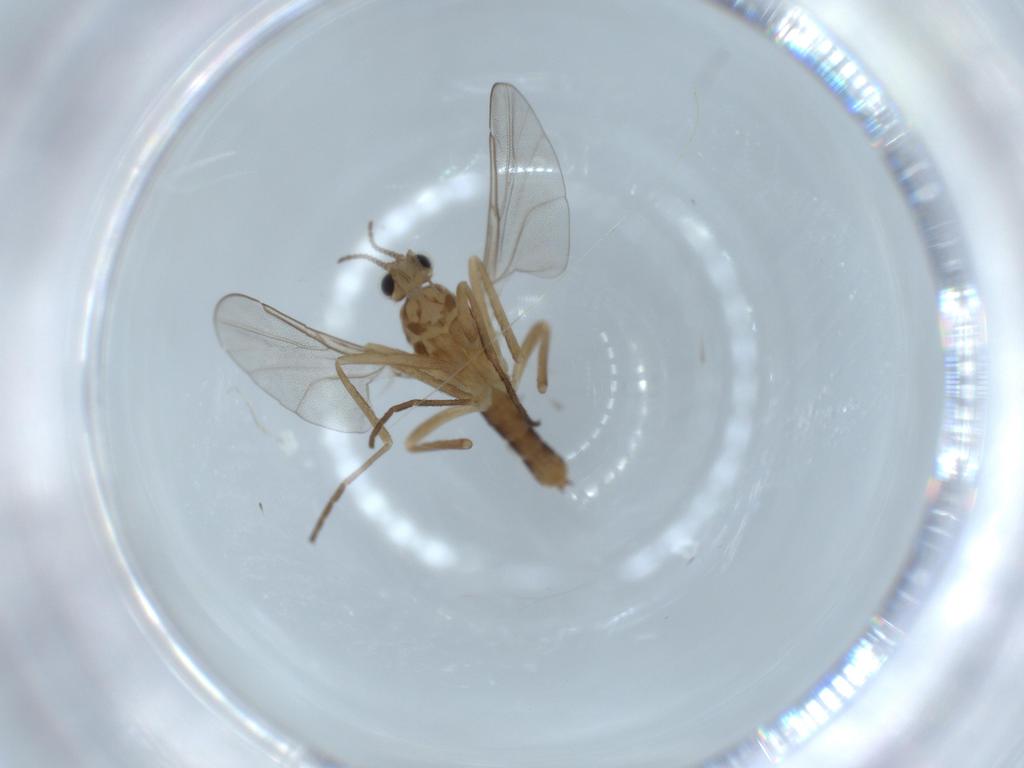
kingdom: Animalia
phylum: Arthropoda
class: Insecta
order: Diptera
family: Cecidomyiidae
